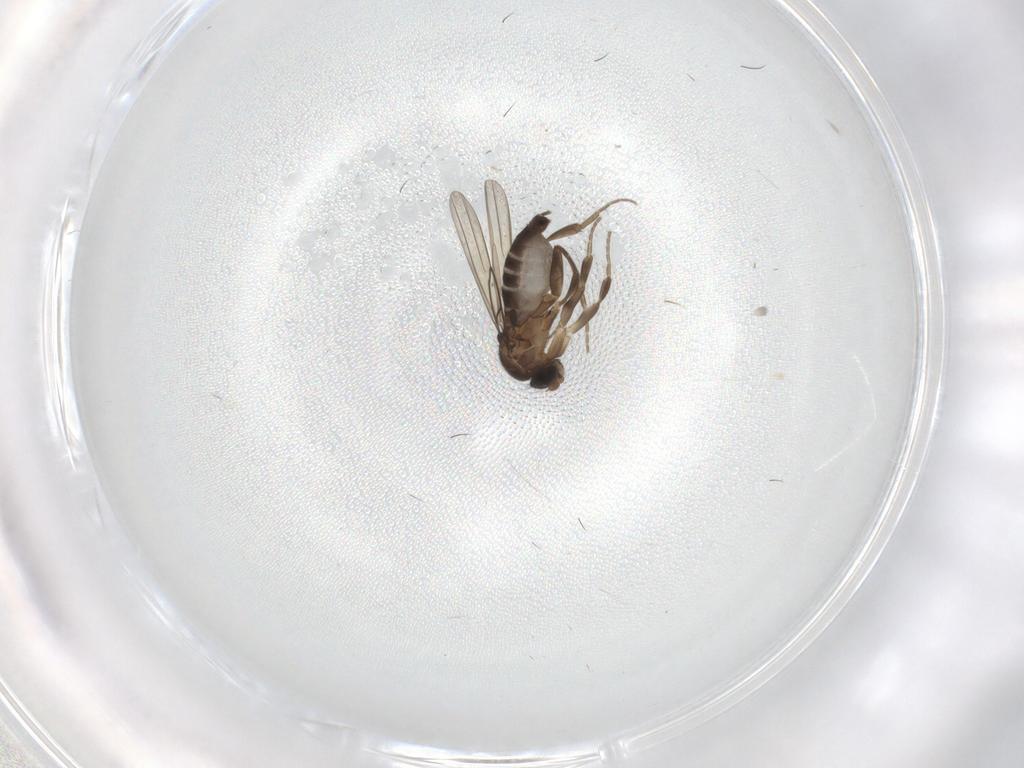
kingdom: Animalia
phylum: Arthropoda
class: Insecta
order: Diptera
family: Phoridae
